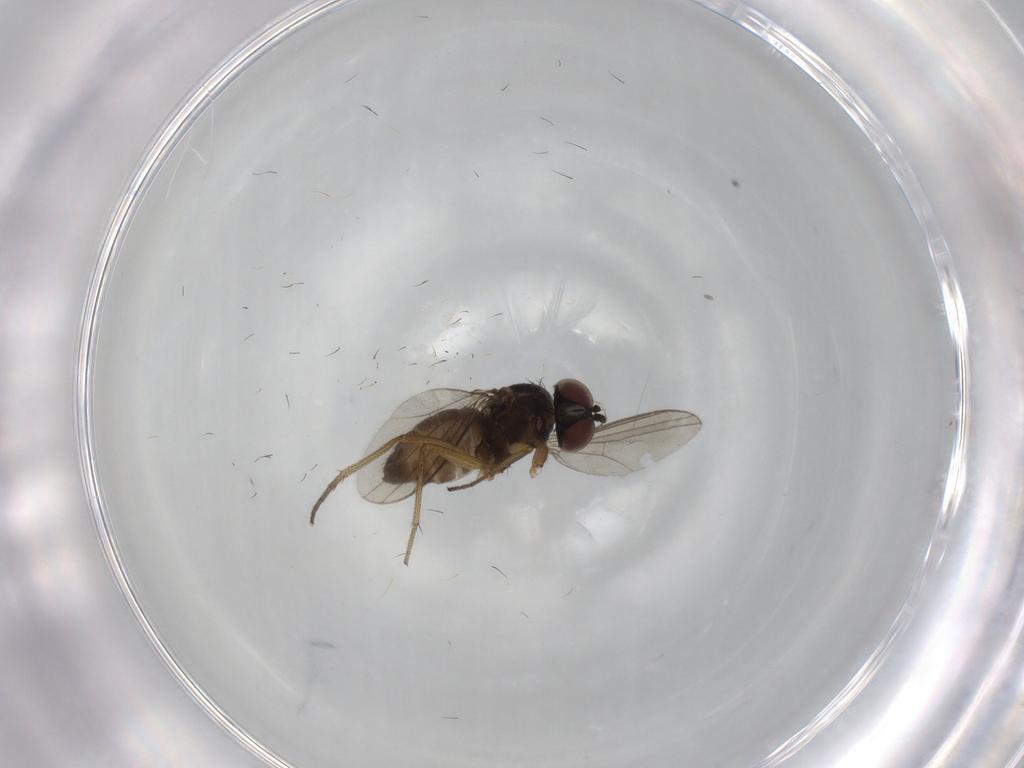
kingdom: Animalia
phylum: Arthropoda
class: Insecta
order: Diptera
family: Dolichopodidae
